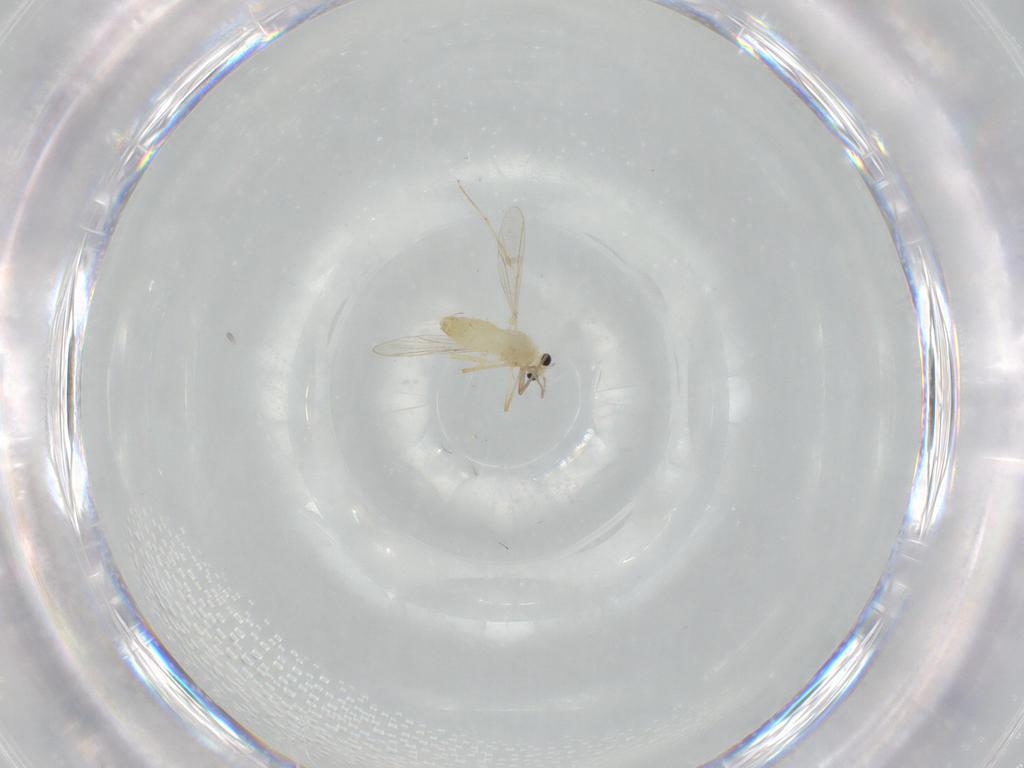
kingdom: Animalia
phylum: Arthropoda
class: Insecta
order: Diptera
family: Chironomidae
